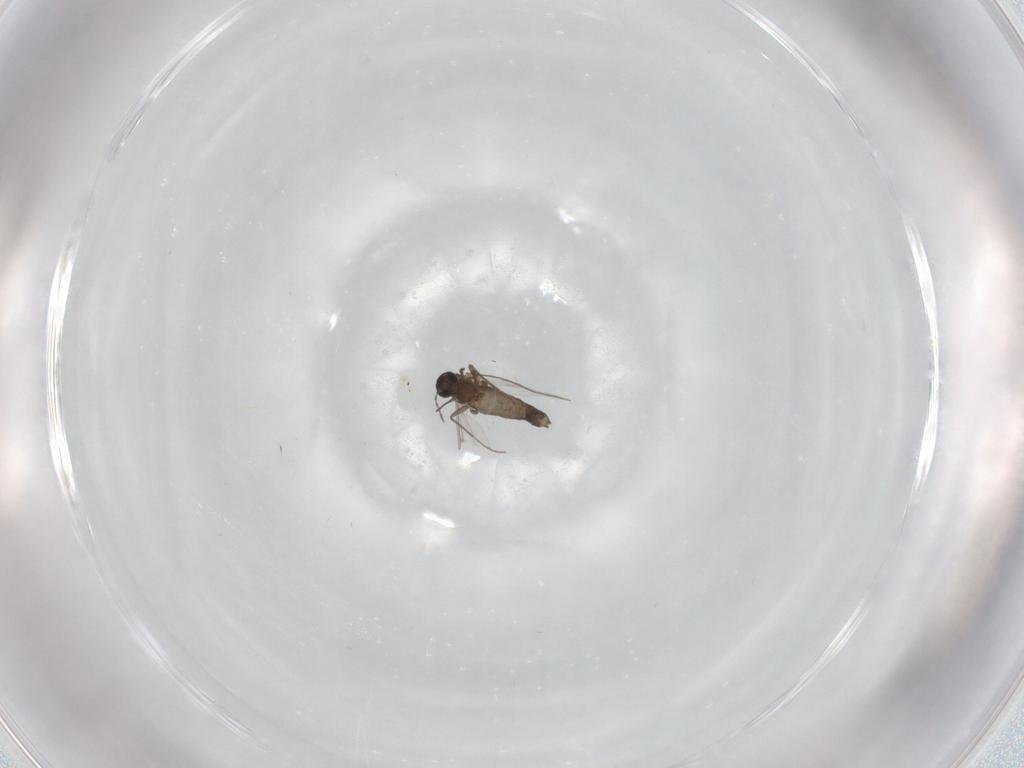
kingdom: Animalia
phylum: Arthropoda
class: Insecta
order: Diptera
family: Chironomidae
